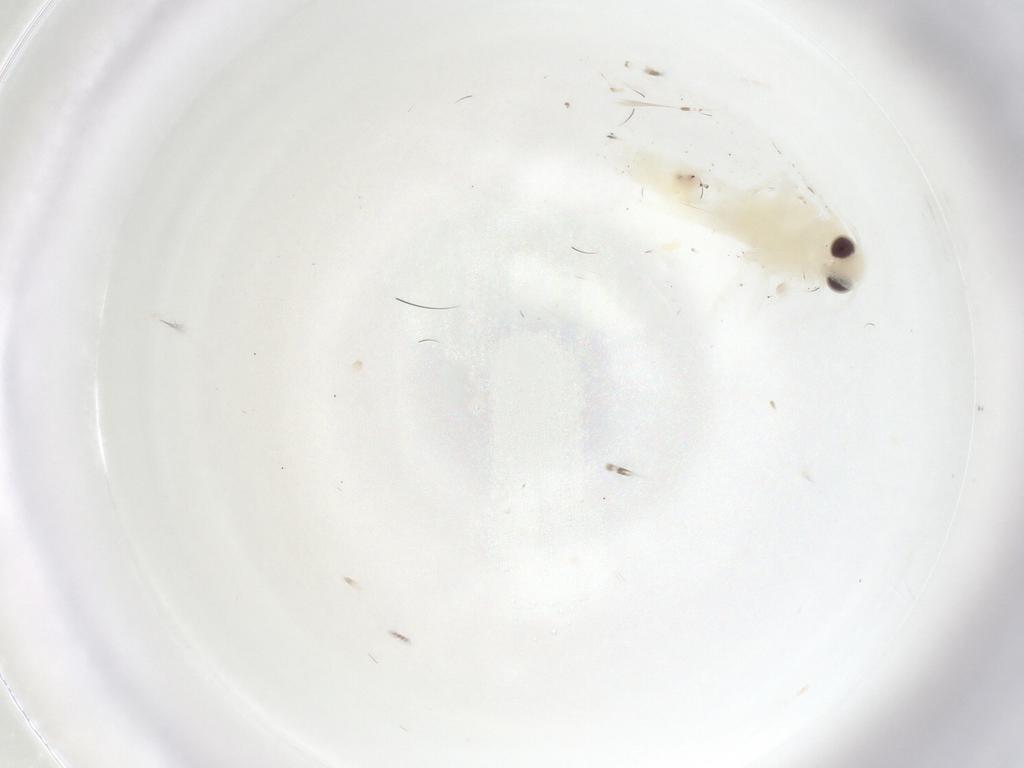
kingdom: Animalia
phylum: Arthropoda
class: Insecta
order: Lepidoptera
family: Gelechiidae
